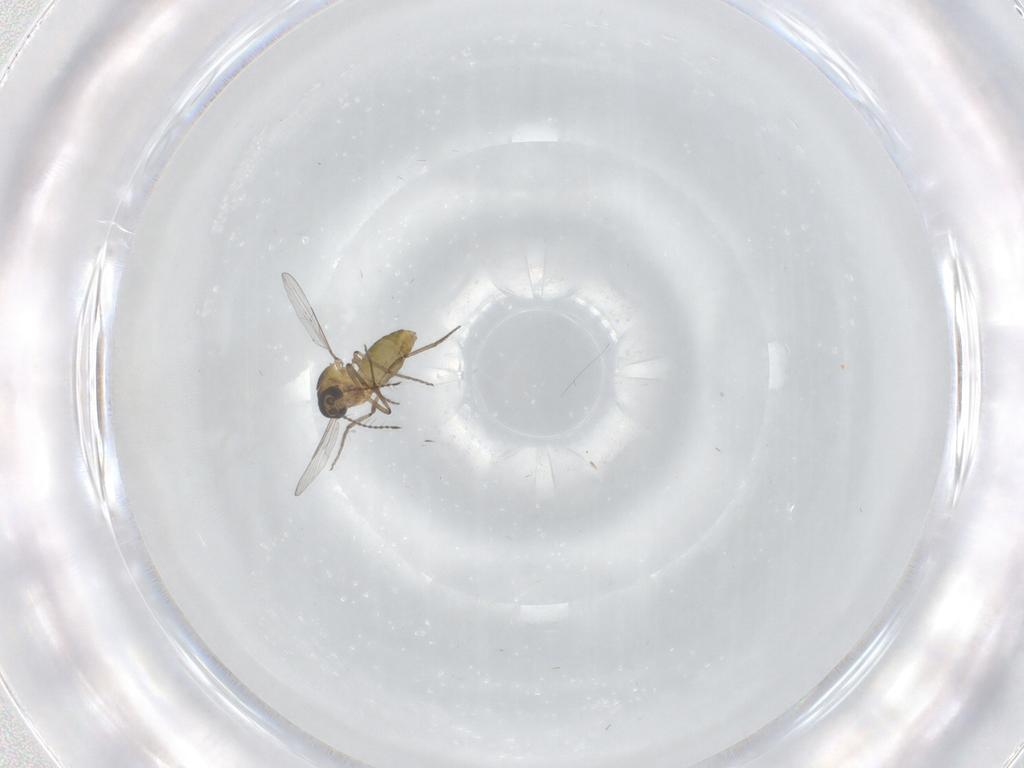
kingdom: Animalia
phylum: Arthropoda
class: Insecta
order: Diptera
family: Ceratopogonidae
